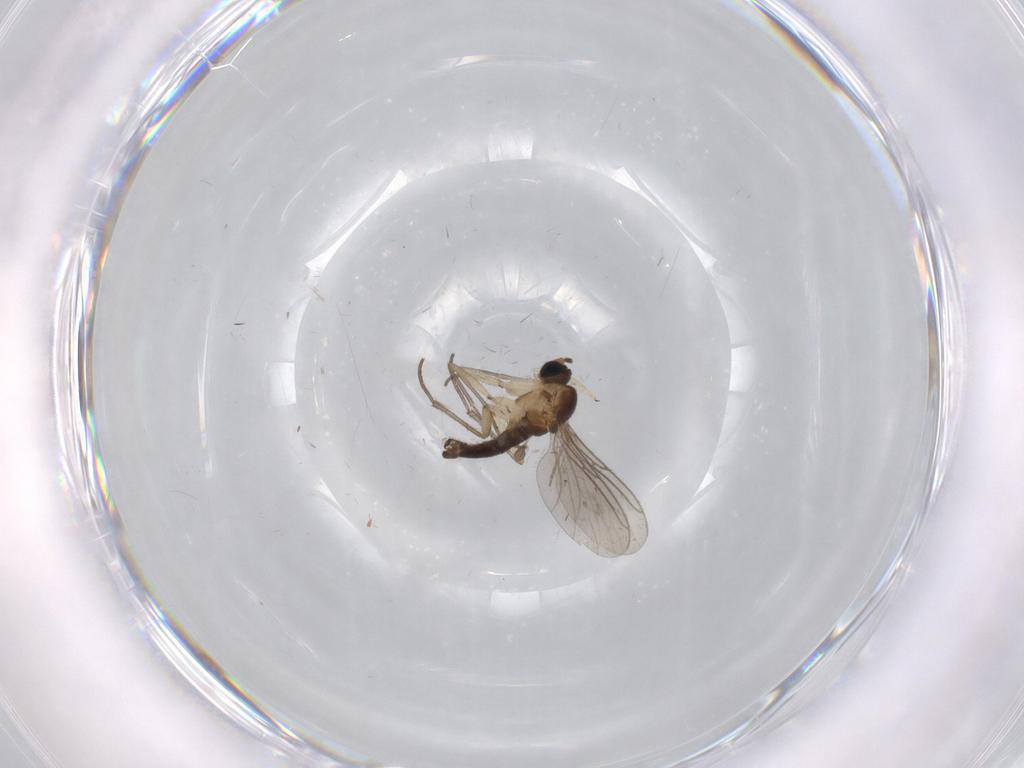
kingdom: Animalia
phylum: Arthropoda
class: Insecta
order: Diptera
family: Sciaridae
